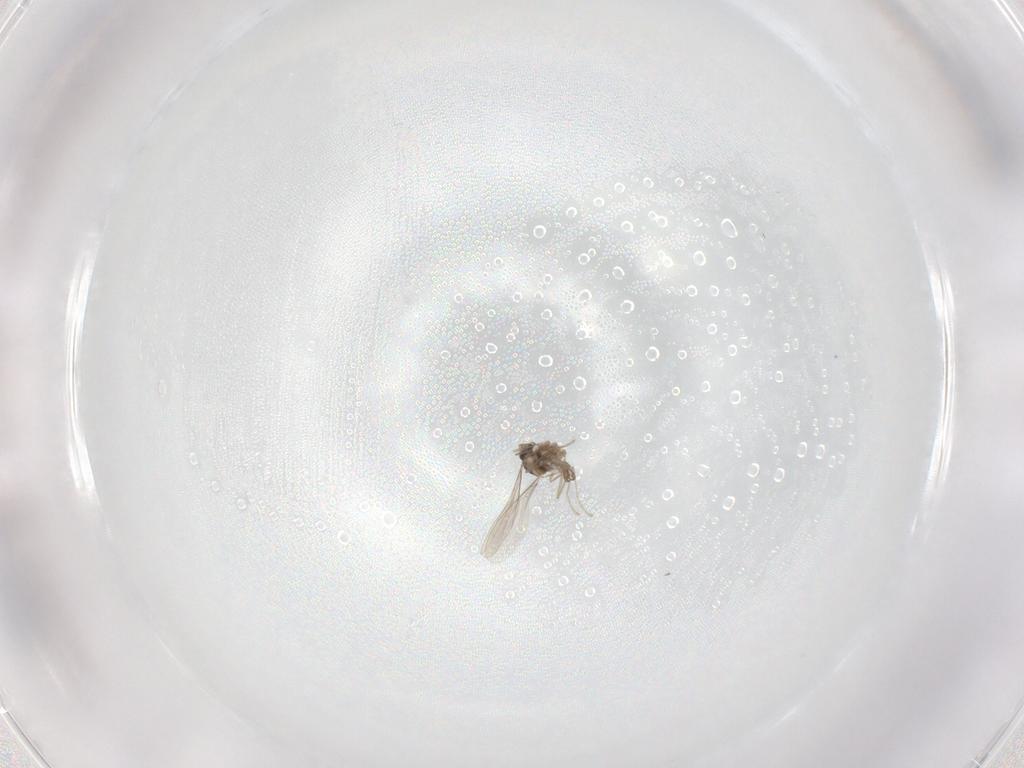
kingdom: Animalia
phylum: Arthropoda
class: Insecta
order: Diptera
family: Cecidomyiidae
